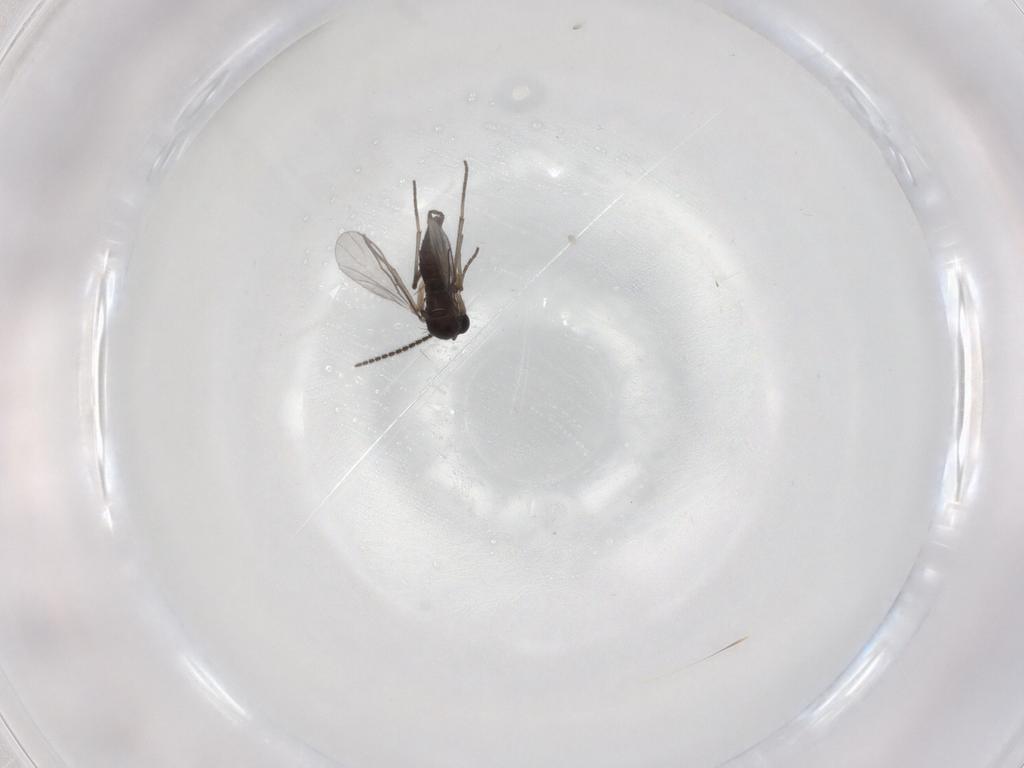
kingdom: Animalia
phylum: Arthropoda
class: Insecta
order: Diptera
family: Sciaridae
